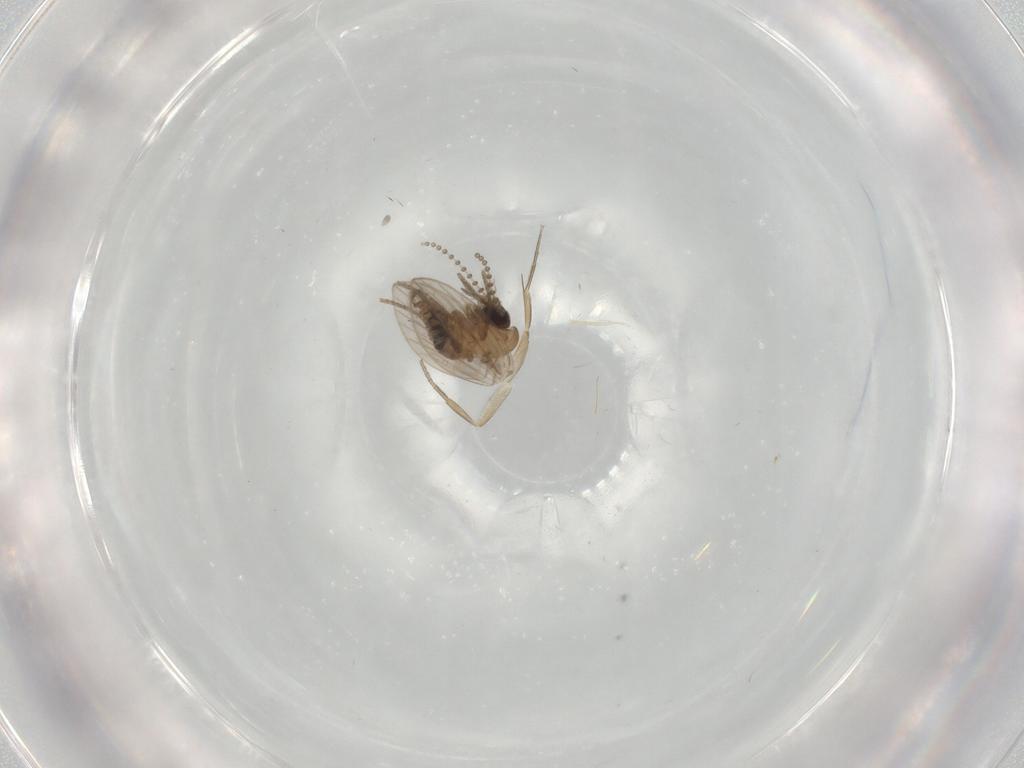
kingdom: Animalia
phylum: Arthropoda
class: Insecta
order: Diptera
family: Phoridae
